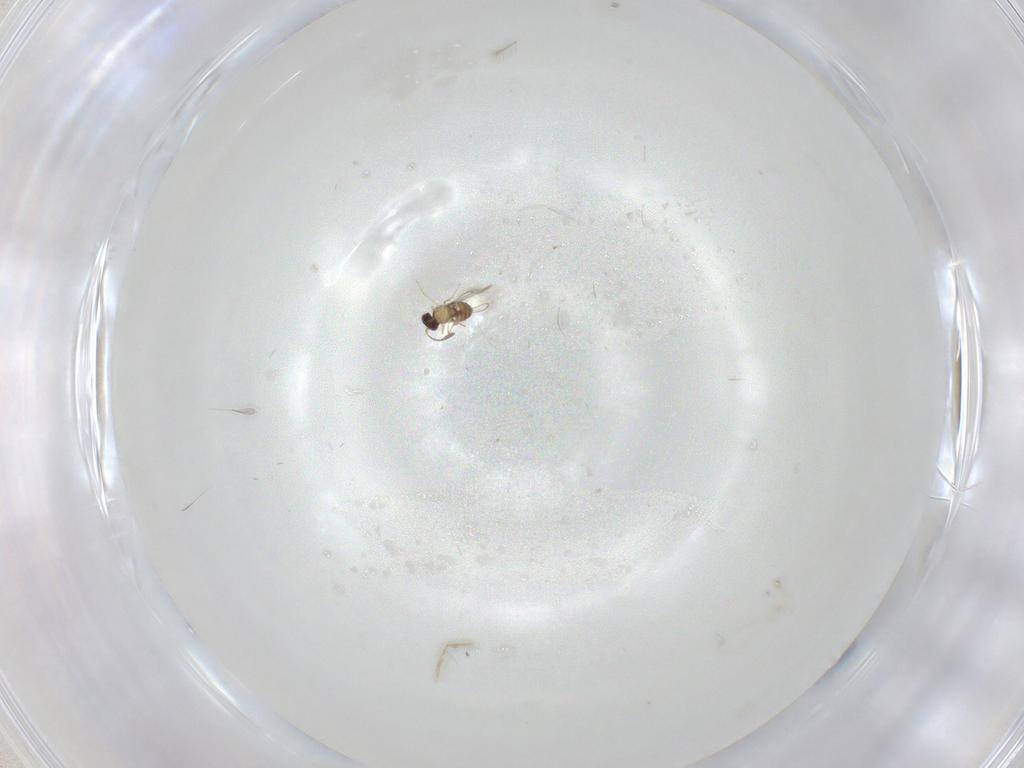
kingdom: Animalia
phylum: Arthropoda
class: Insecta
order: Hymenoptera
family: Mymaridae
